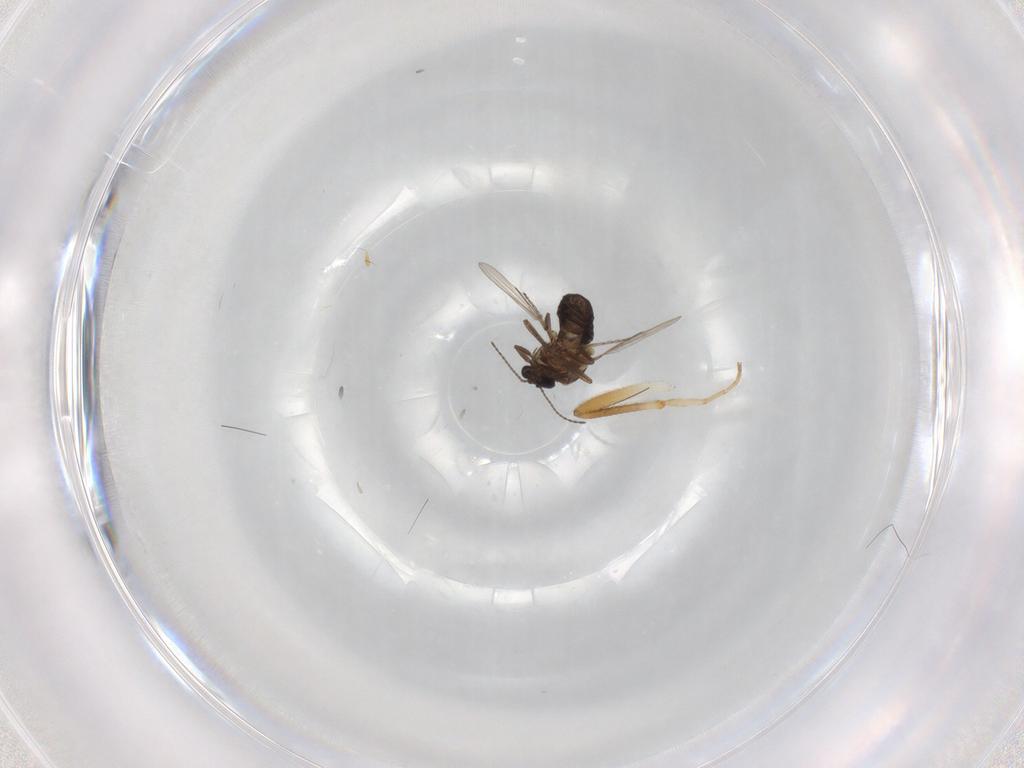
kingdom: Animalia
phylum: Arthropoda
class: Insecta
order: Diptera
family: Ceratopogonidae
